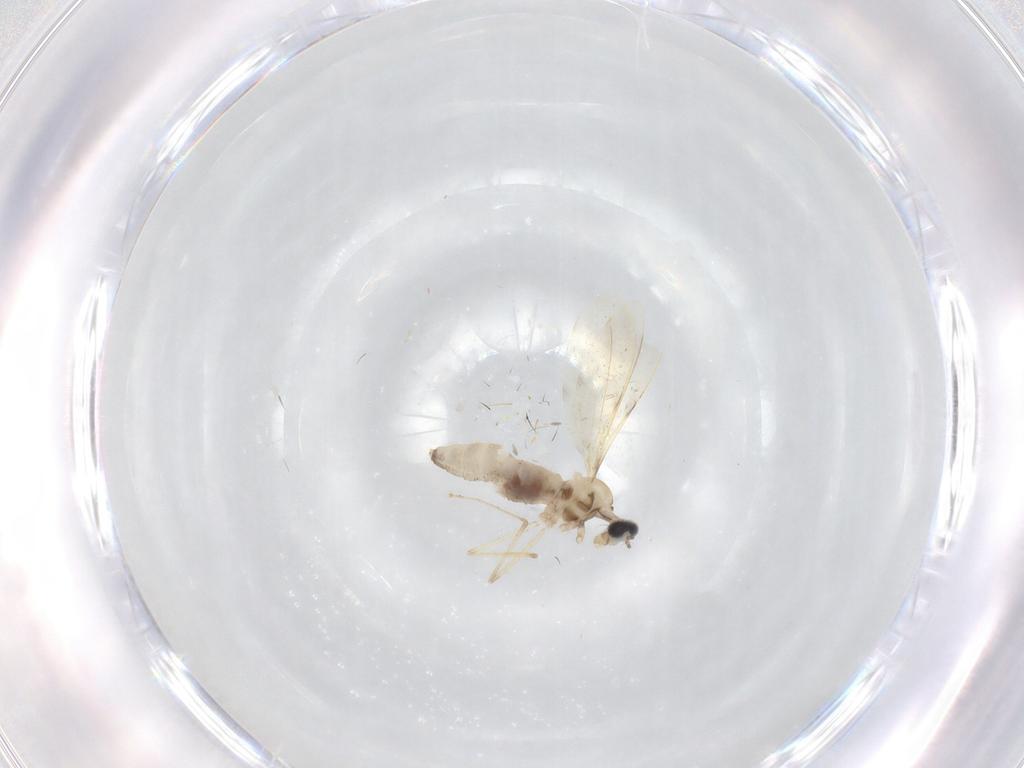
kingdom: Animalia
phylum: Arthropoda
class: Insecta
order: Diptera
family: Cecidomyiidae
